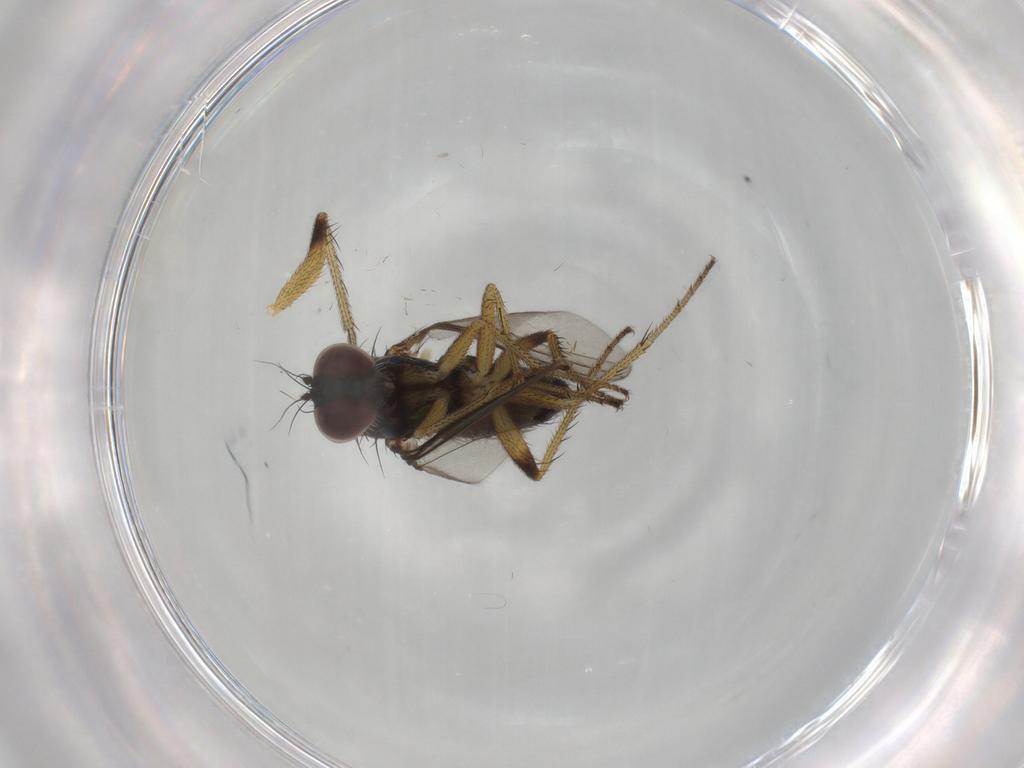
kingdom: Animalia
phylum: Arthropoda
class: Insecta
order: Diptera
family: Dolichopodidae
